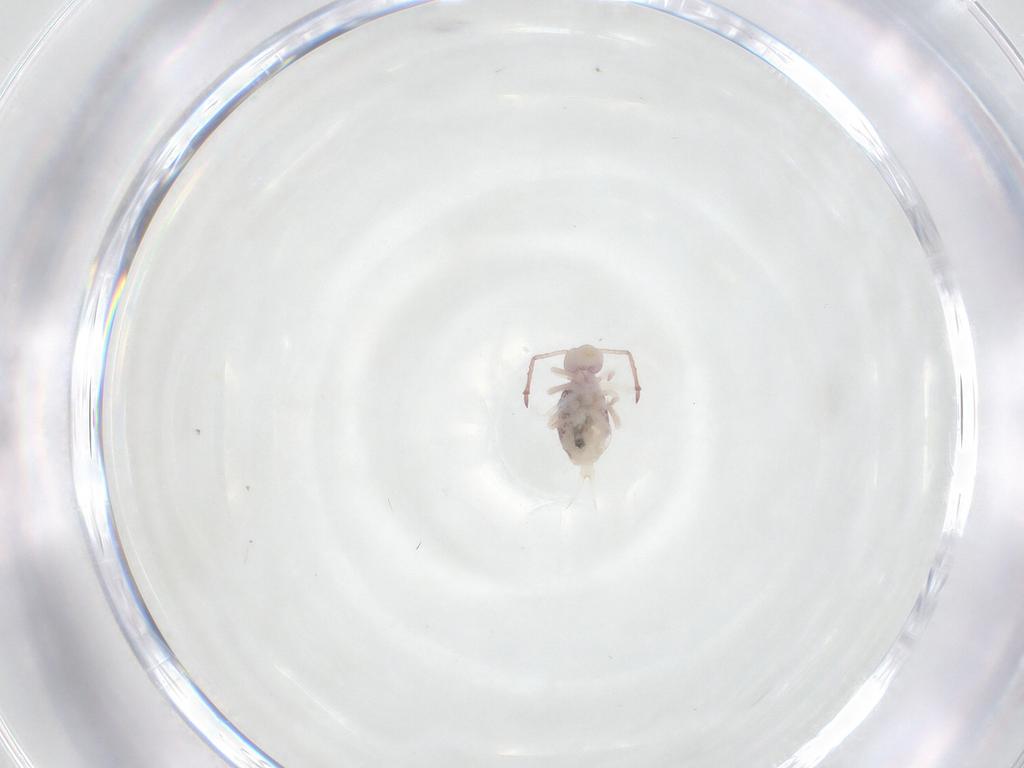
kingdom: Animalia
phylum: Arthropoda
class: Collembola
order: Symphypleona
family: Dicyrtomidae
